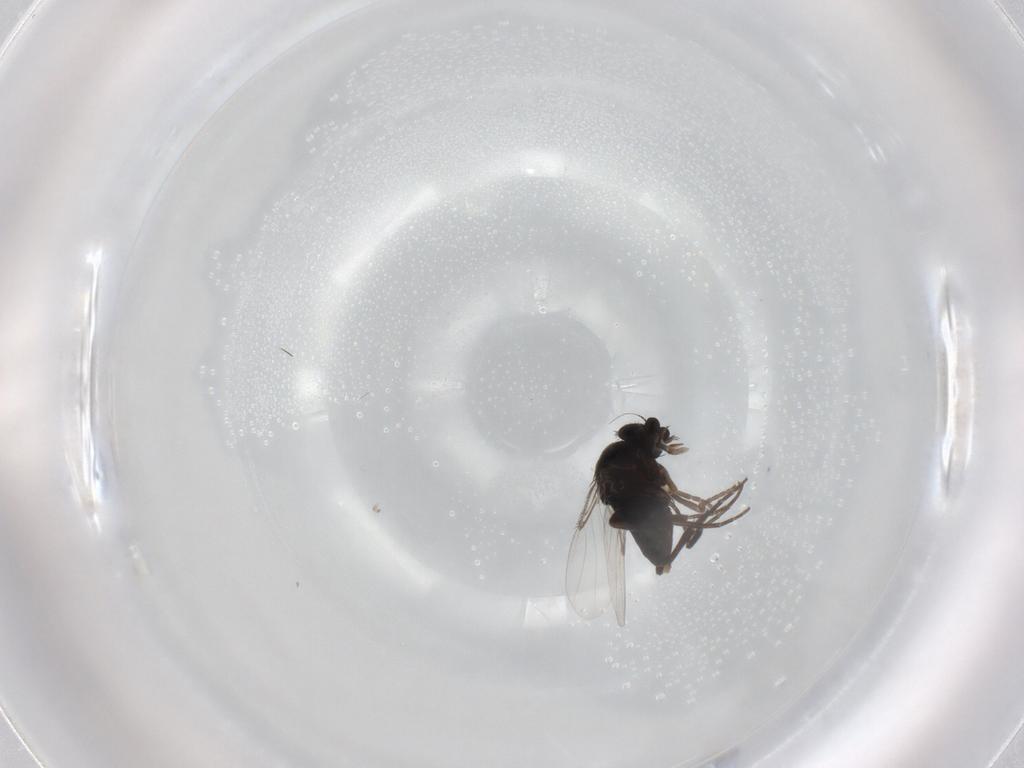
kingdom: Animalia
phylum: Arthropoda
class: Insecta
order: Diptera
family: Phoridae
